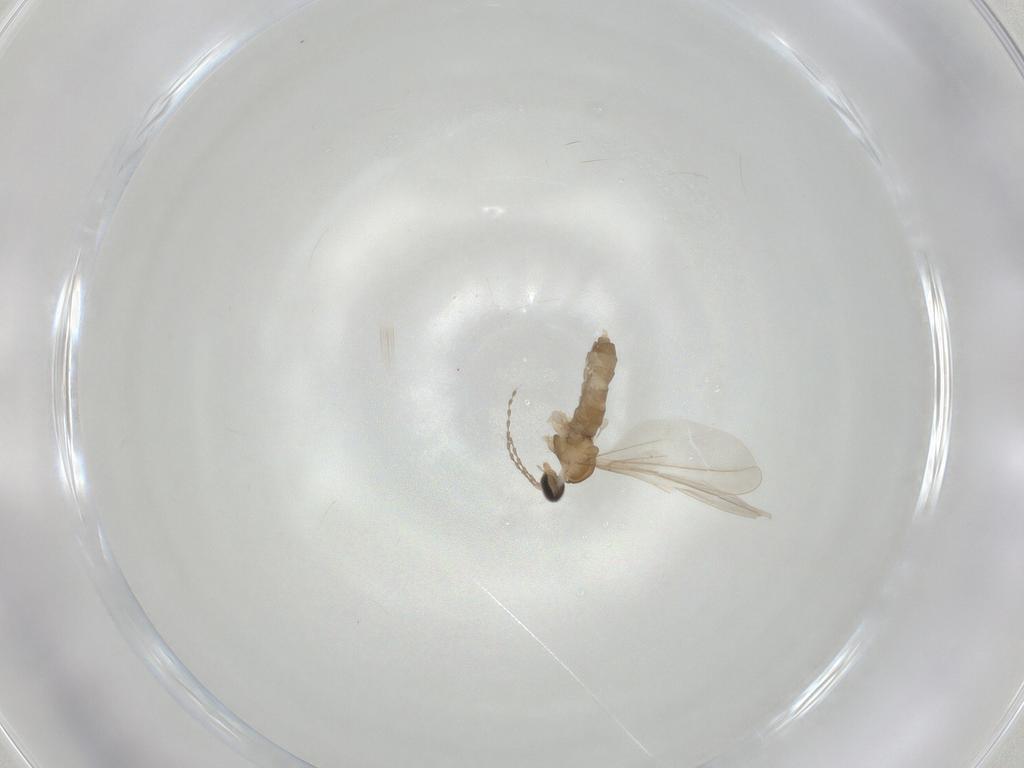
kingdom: Animalia
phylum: Arthropoda
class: Insecta
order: Diptera
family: Cecidomyiidae
